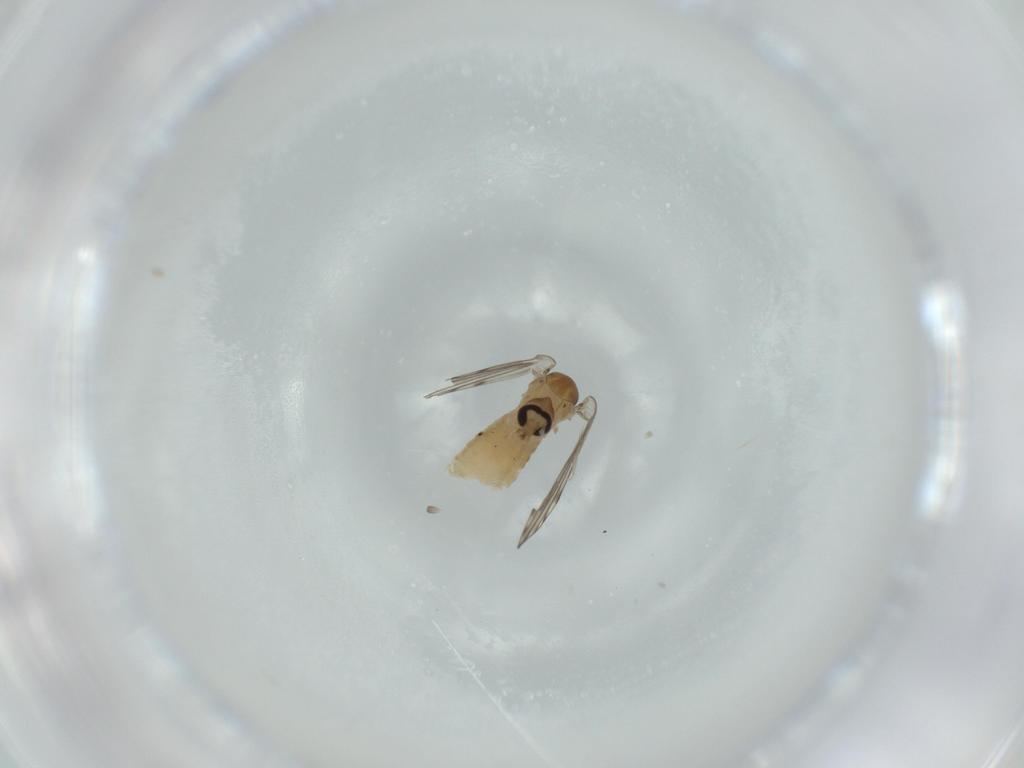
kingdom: Animalia
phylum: Arthropoda
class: Insecta
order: Diptera
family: Psychodidae
